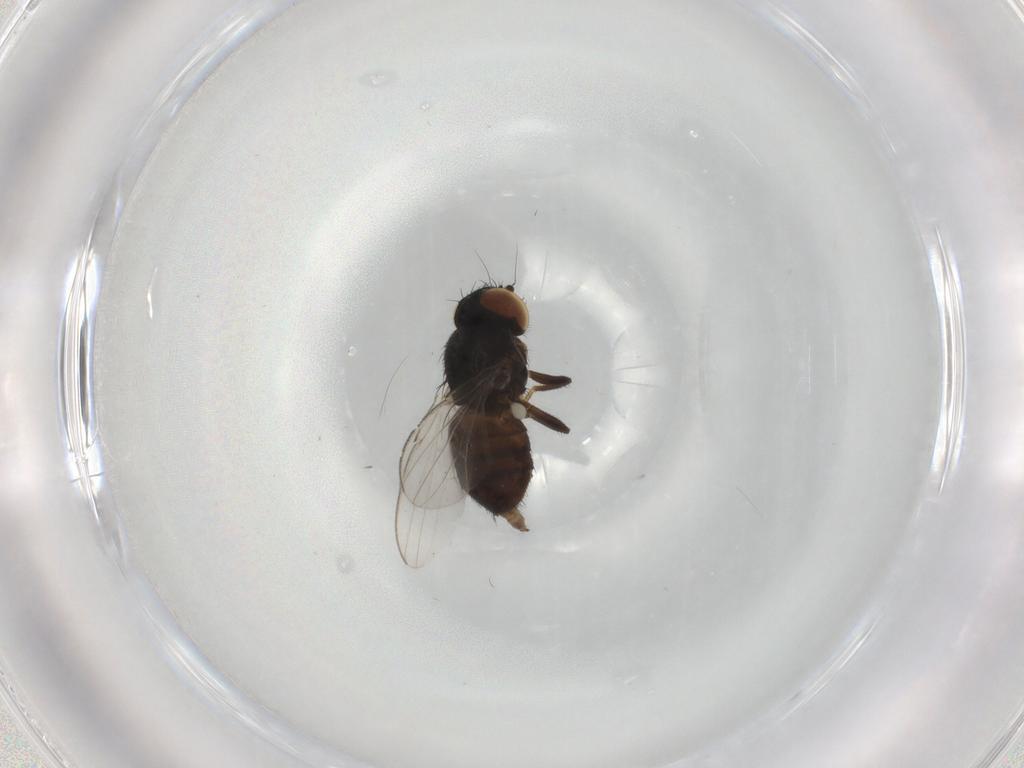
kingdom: Animalia
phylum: Arthropoda
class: Insecta
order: Diptera
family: Milichiidae
